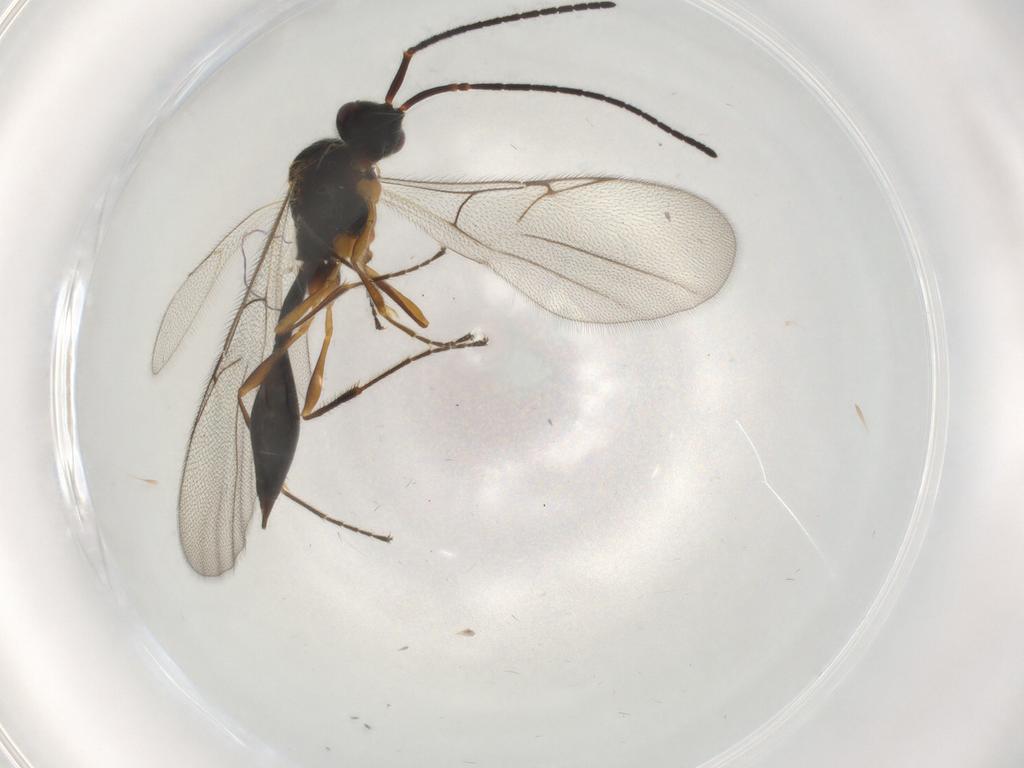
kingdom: Animalia
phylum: Arthropoda
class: Insecta
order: Hymenoptera
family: Diapriidae
